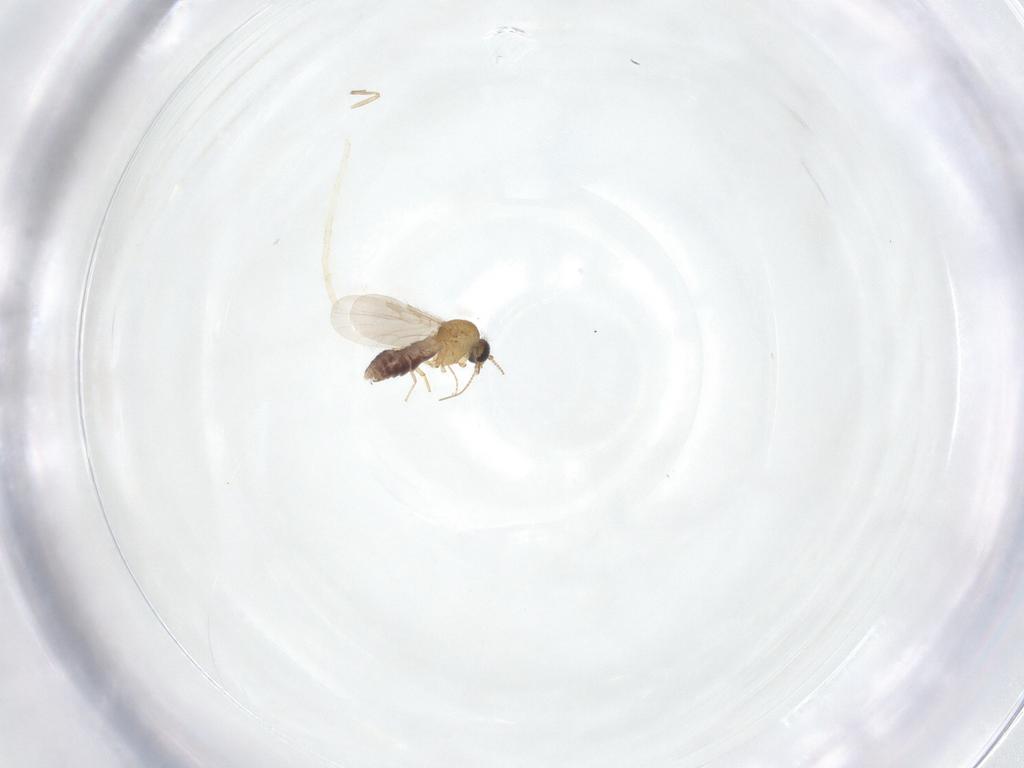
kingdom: Animalia
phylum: Arthropoda
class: Insecta
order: Diptera
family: Ceratopogonidae
